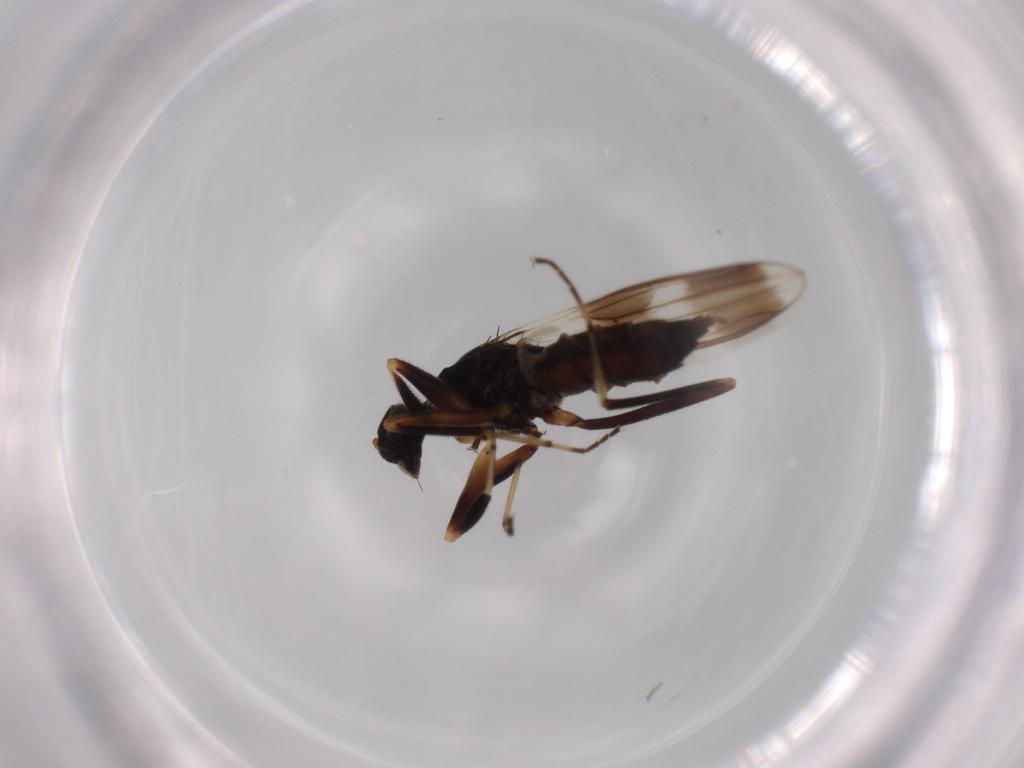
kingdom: Animalia
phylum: Arthropoda
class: Insecta
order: Diptera
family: Hybotidae
